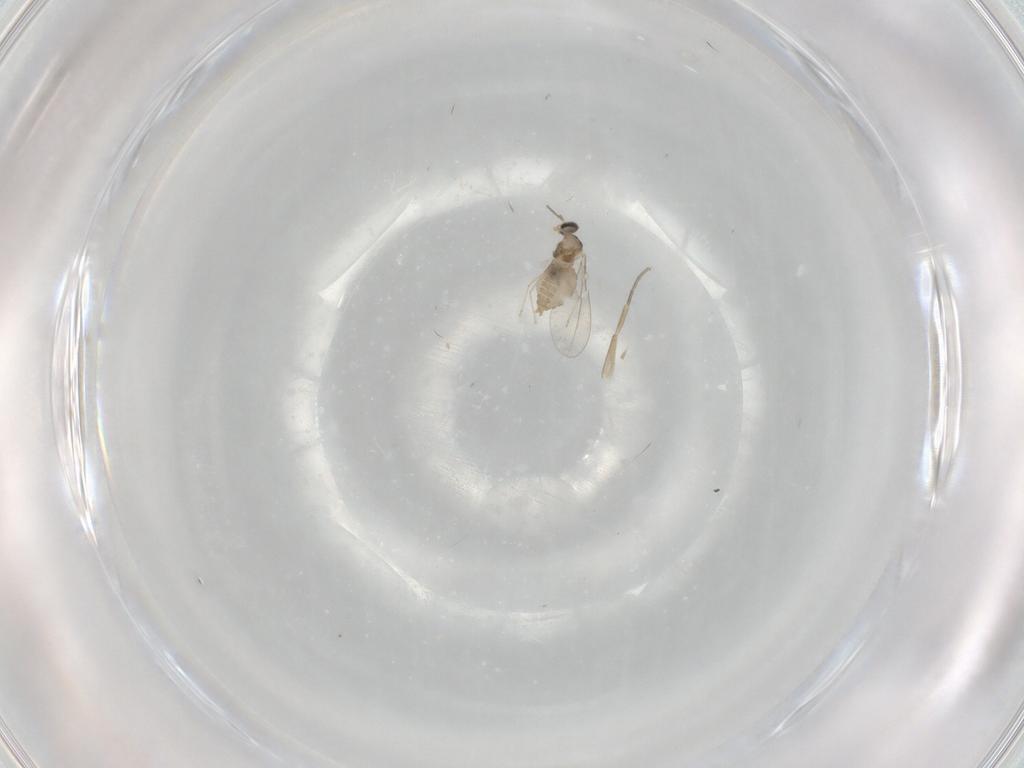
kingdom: Animalia
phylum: Arthropoda
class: Insecta
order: Diptera
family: Cecidomyiidae
